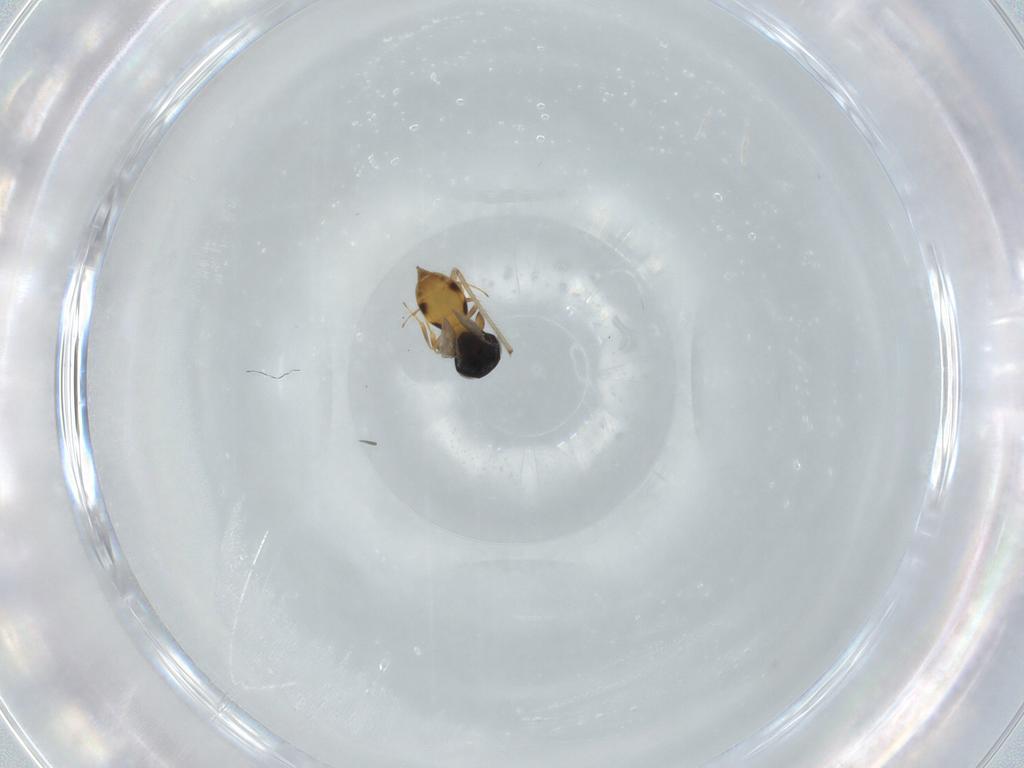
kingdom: Animalia
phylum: Arthropoda
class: Arachnida
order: Araneae
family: Pholcidae
